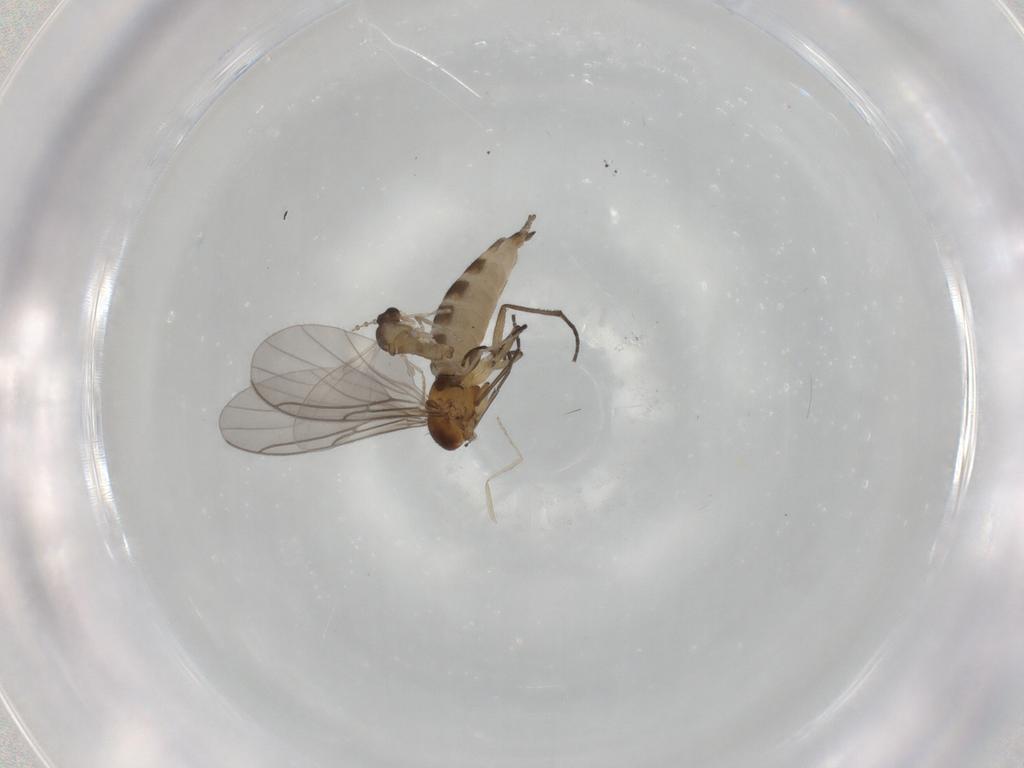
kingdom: Animalia
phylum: Arthropoda
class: Insecta
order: Diptera
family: Sciaridae
